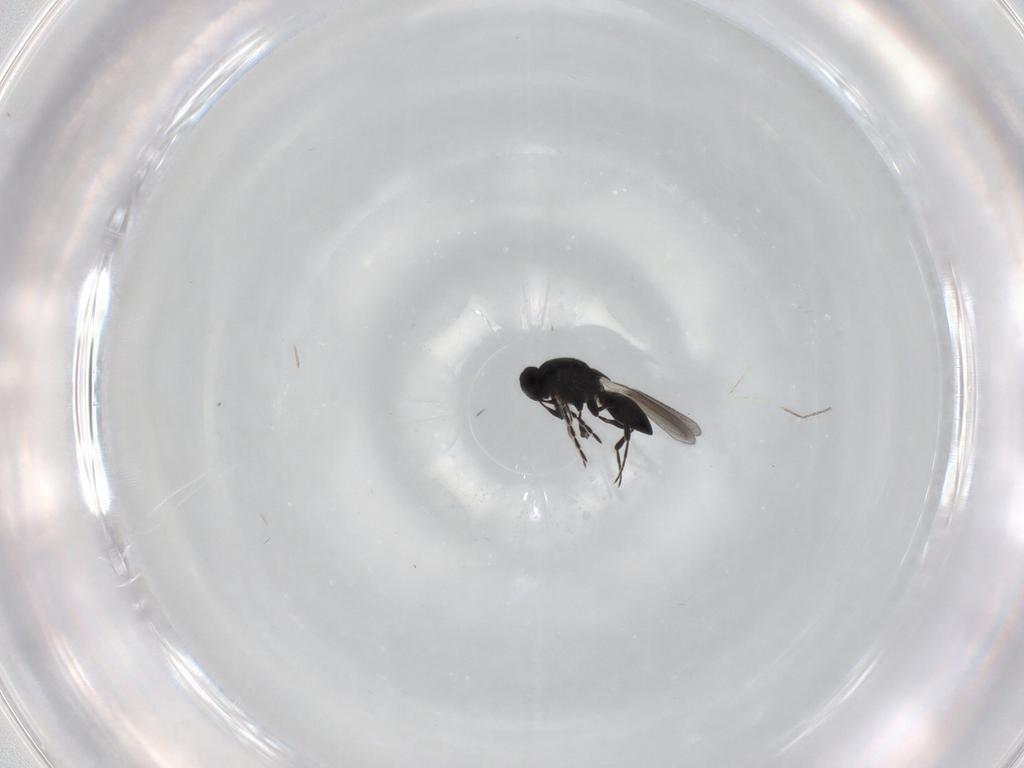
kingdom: Animalia
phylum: Arthropoda
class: Insecta
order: Hymenoptera
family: Platygastridae
